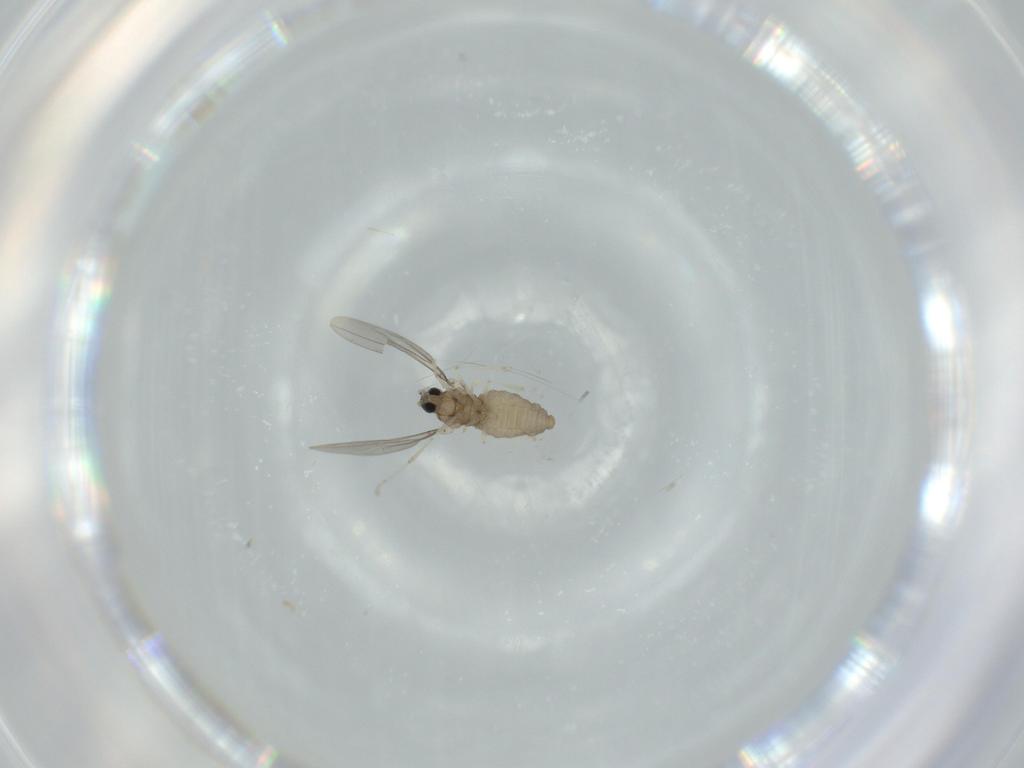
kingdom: Animalia
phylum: Arthropoda
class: Insecta
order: Diptera
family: Cecidomyiidae
